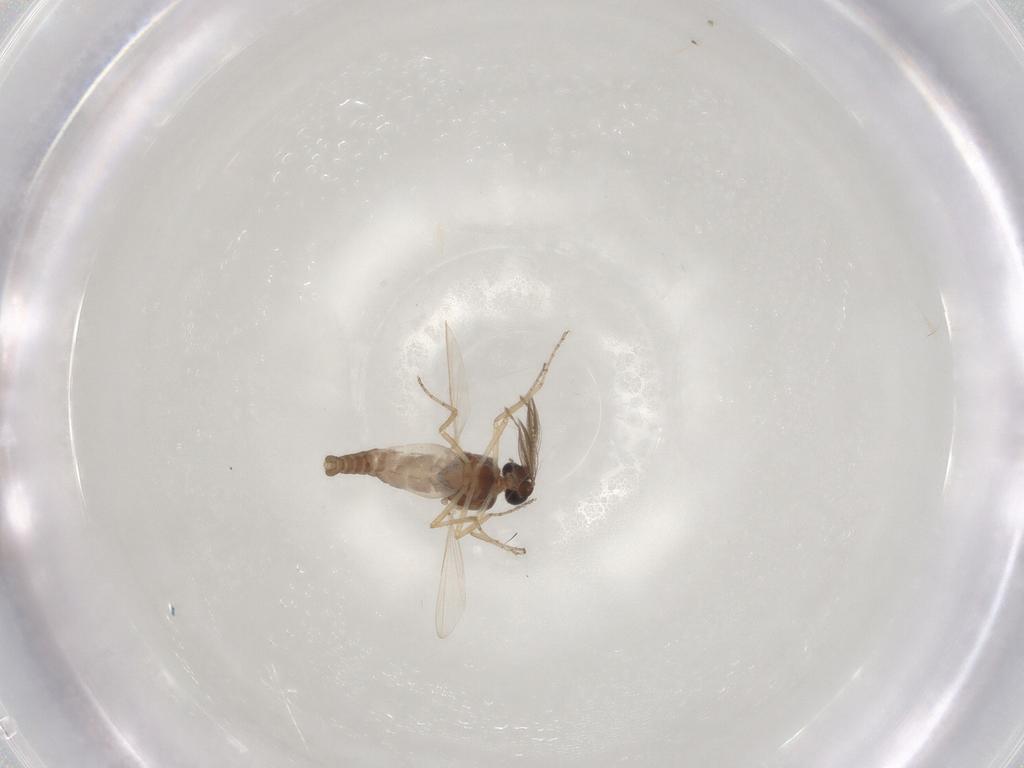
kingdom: Animalia
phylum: Arthropoda
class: Insecta
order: Diptera
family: Ceratopogonidae
